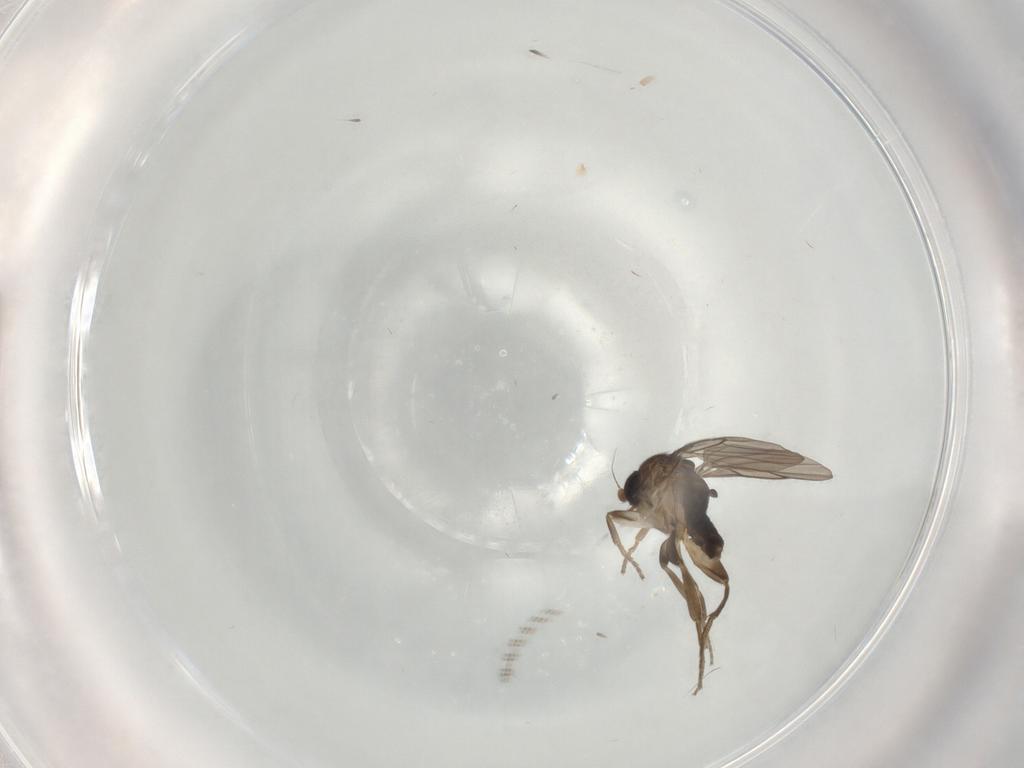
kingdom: Animalia
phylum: Arthropoda
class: Insecta
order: Diptera
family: Cecidomyiidae
